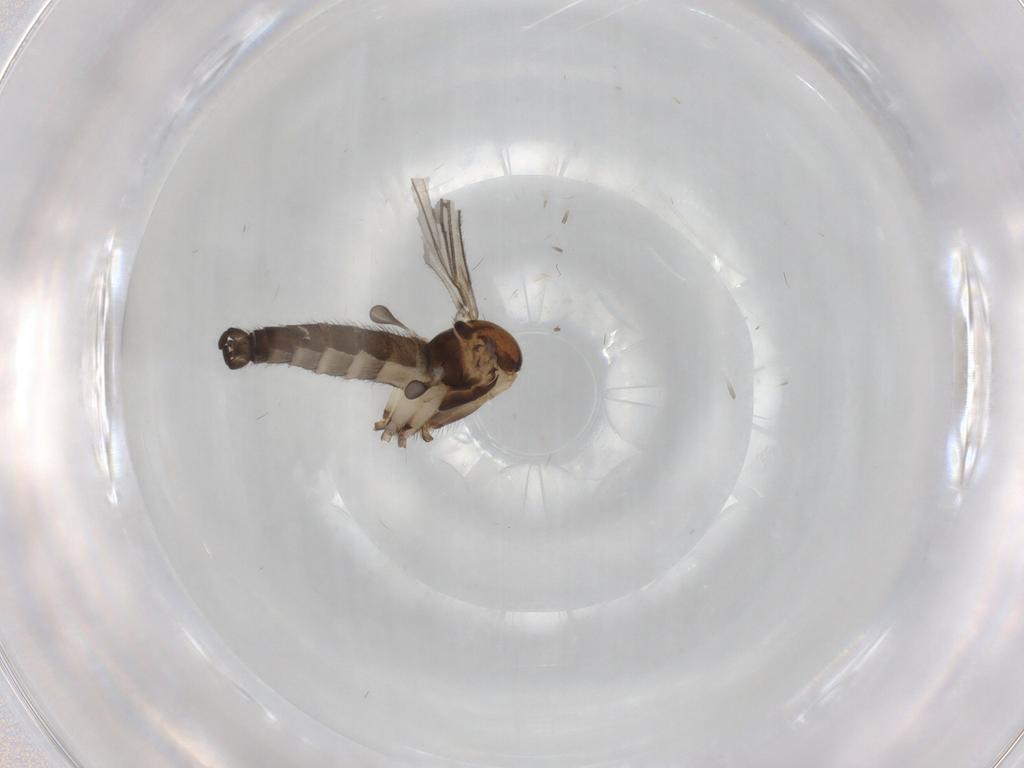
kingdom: Animalia
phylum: Arthropoda
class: Insecta
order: Diptera
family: Sciaridae
